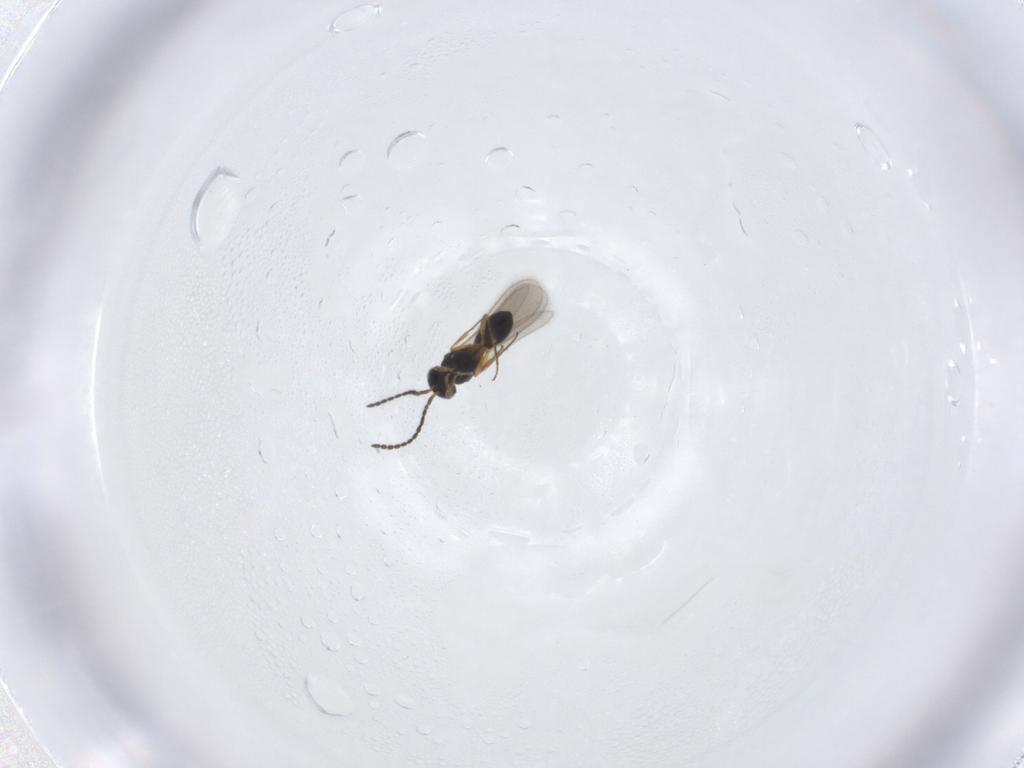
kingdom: Animalia
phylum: Arthropoda
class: Insecta
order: Hymenoptera
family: Scelionidae
